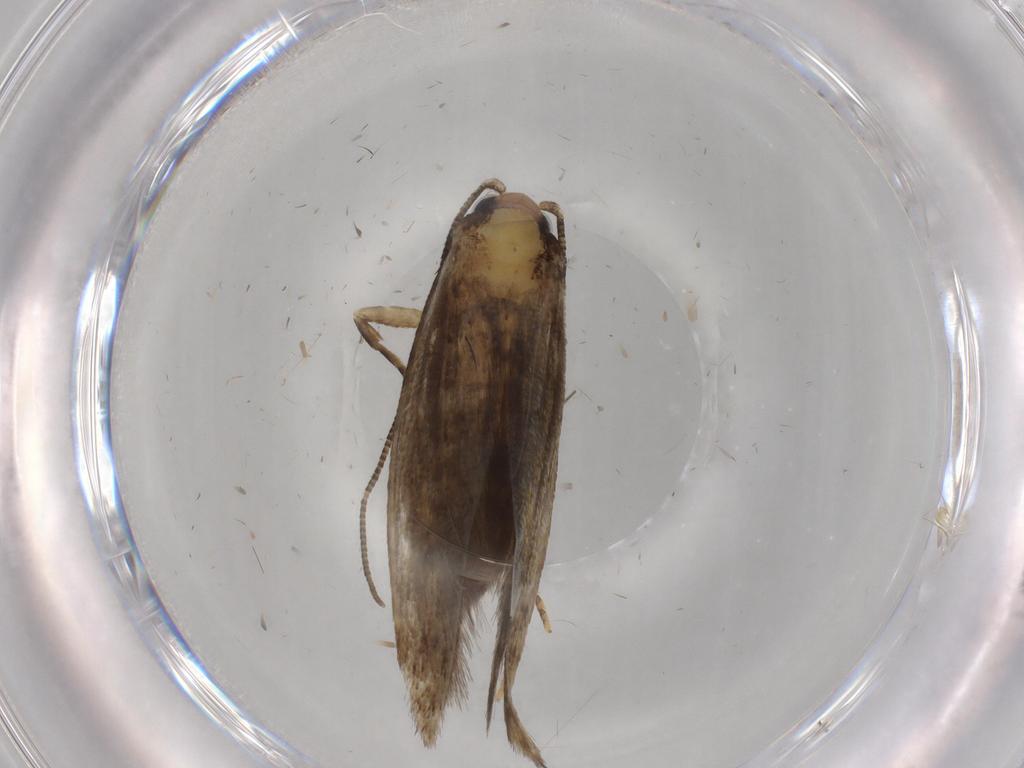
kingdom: Animalia
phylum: Arthropoda
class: Insecta
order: Lepidoptera
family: Tineidae
